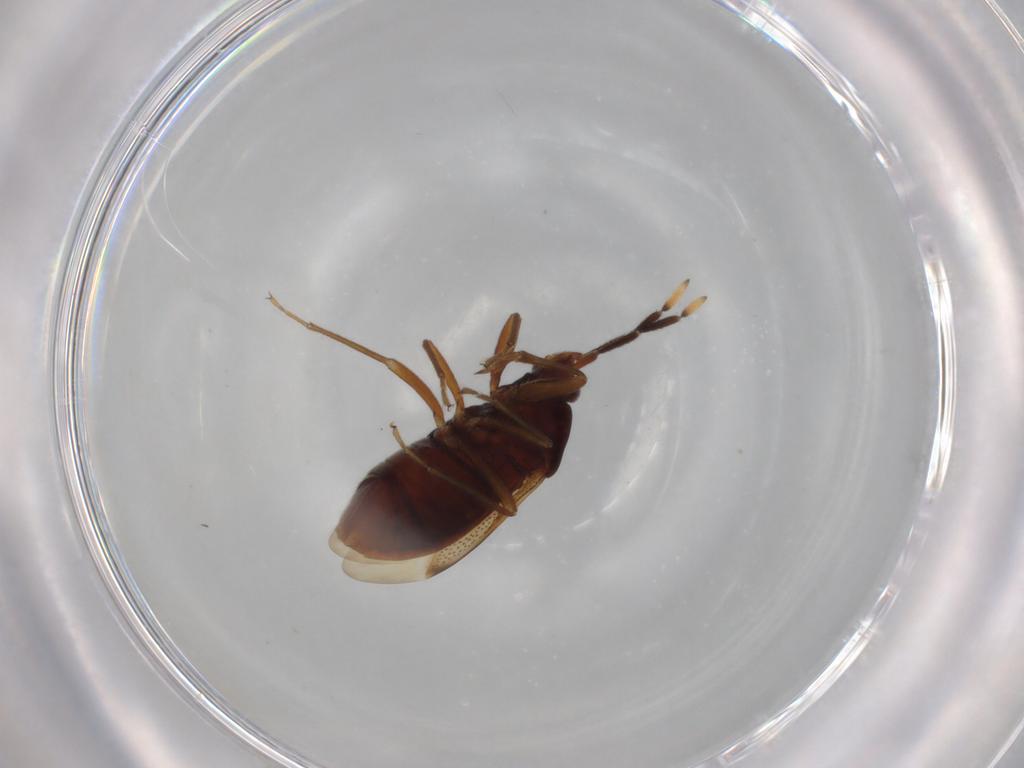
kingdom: Animalia
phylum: Arthropoda
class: Insecta
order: Hemiptera
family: Rhyparochromidae
